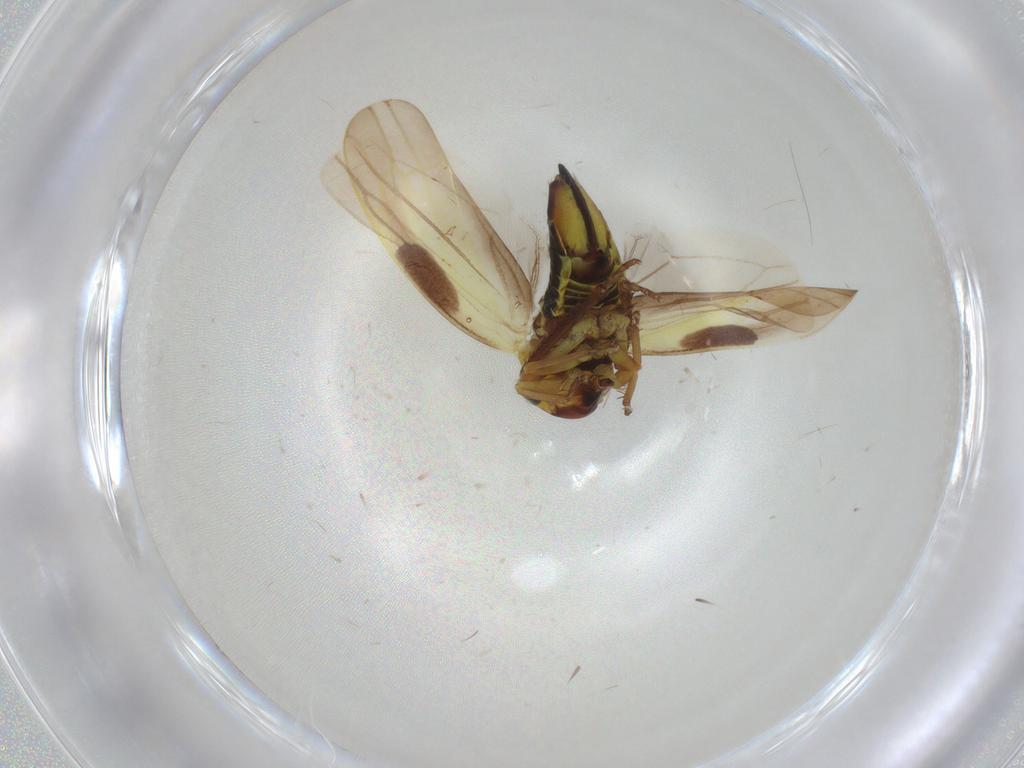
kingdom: Animalia
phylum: Arthropoda
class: Insecta
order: Hemiptera
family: Cicadellidae
